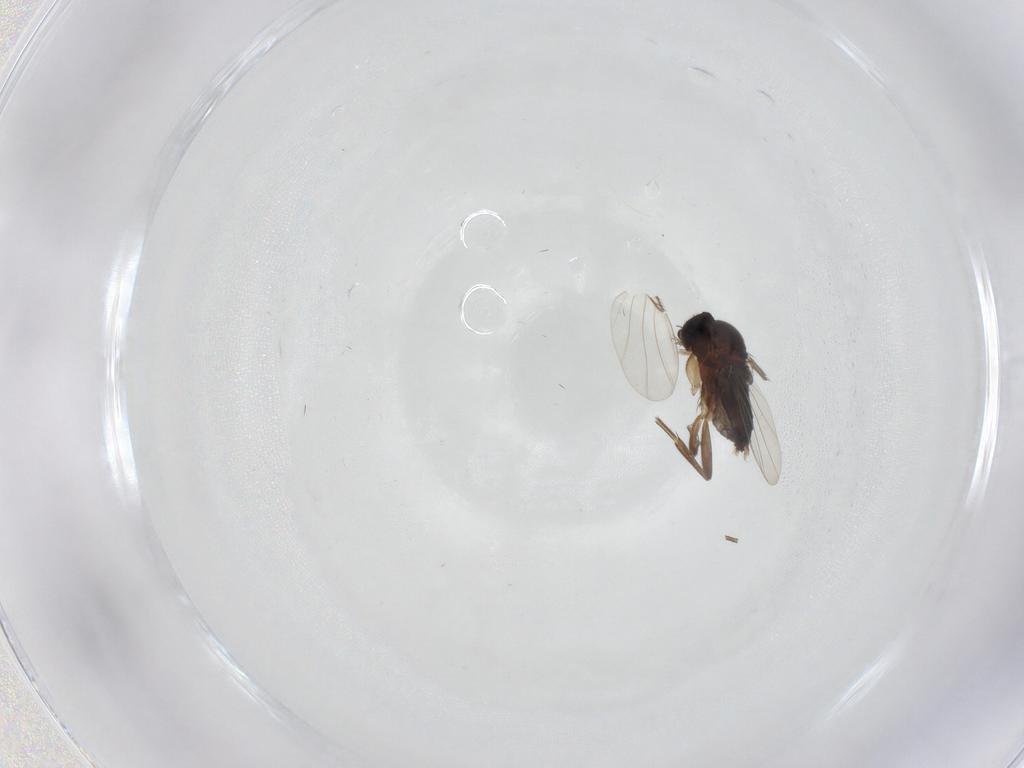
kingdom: Animalia
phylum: Arthropoda
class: Insecta
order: Diptera
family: Phoridae
